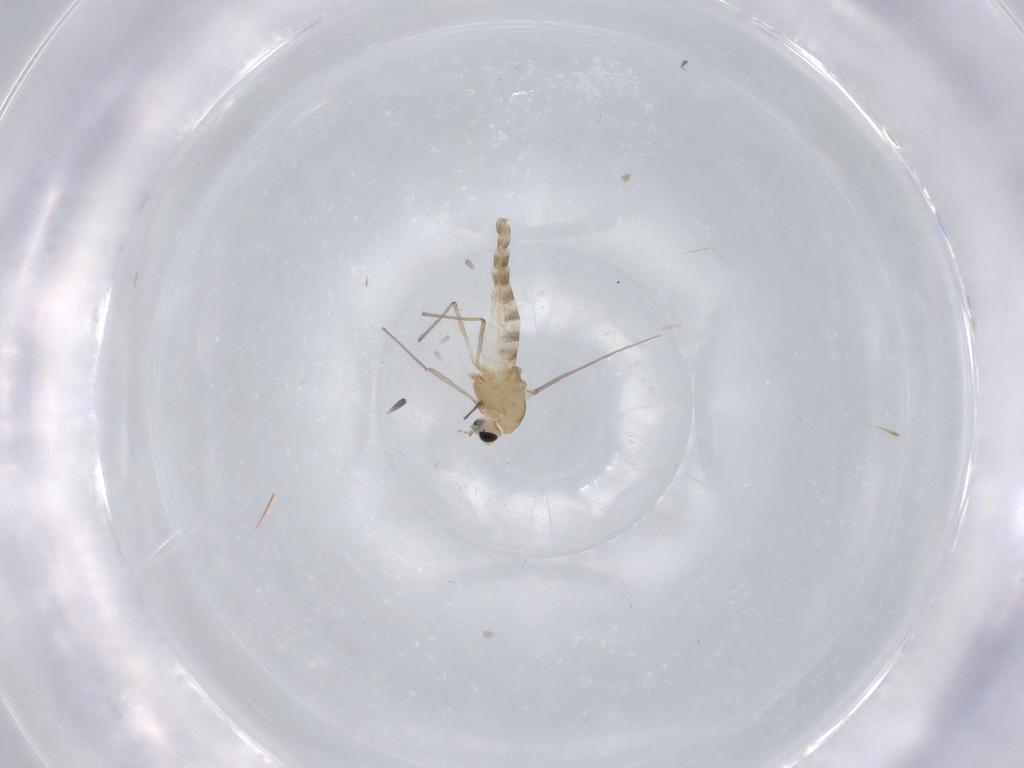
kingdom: Animalia
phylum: Arthropoda
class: Insecta
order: Diptera
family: Chironomidae
